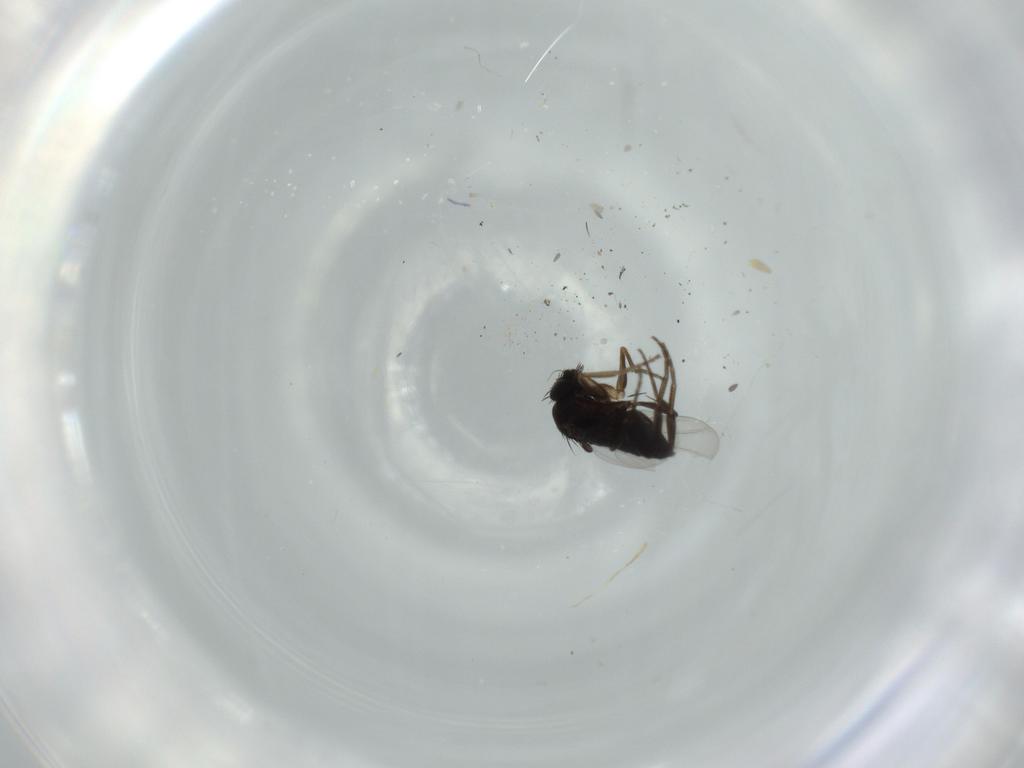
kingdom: Animalia
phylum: Arthropoda
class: Insecta
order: Diptera
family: Phoridae
